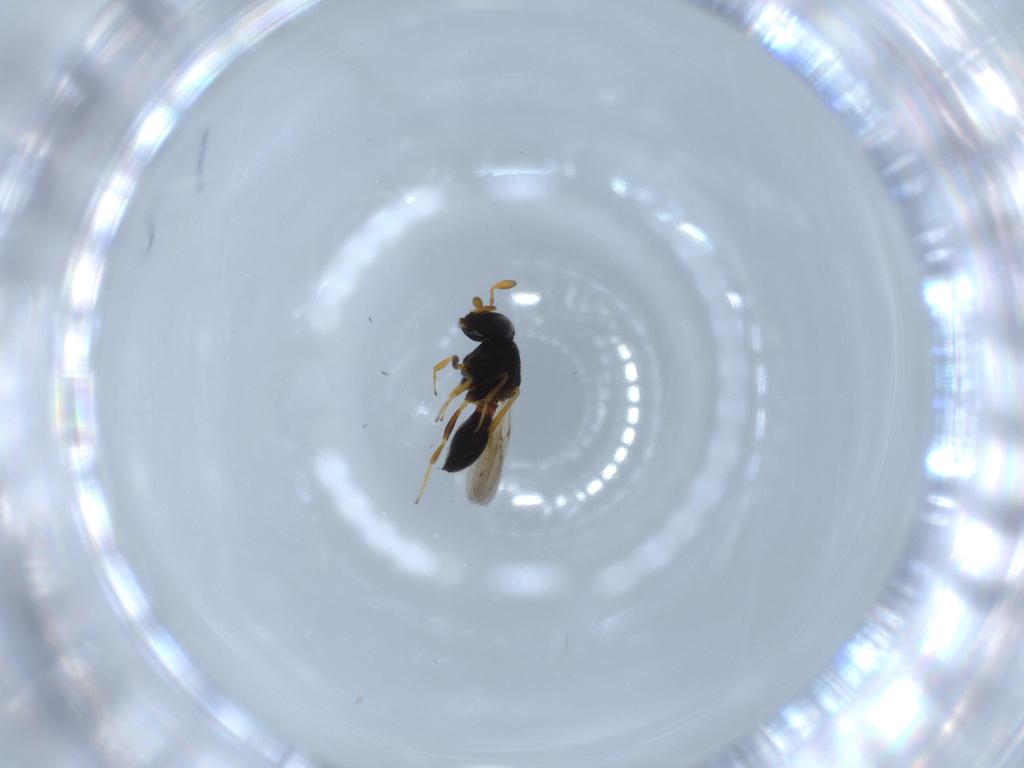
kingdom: Animalia
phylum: Arthropoda
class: Insecta
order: Hymenoptera
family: Scelionidae
